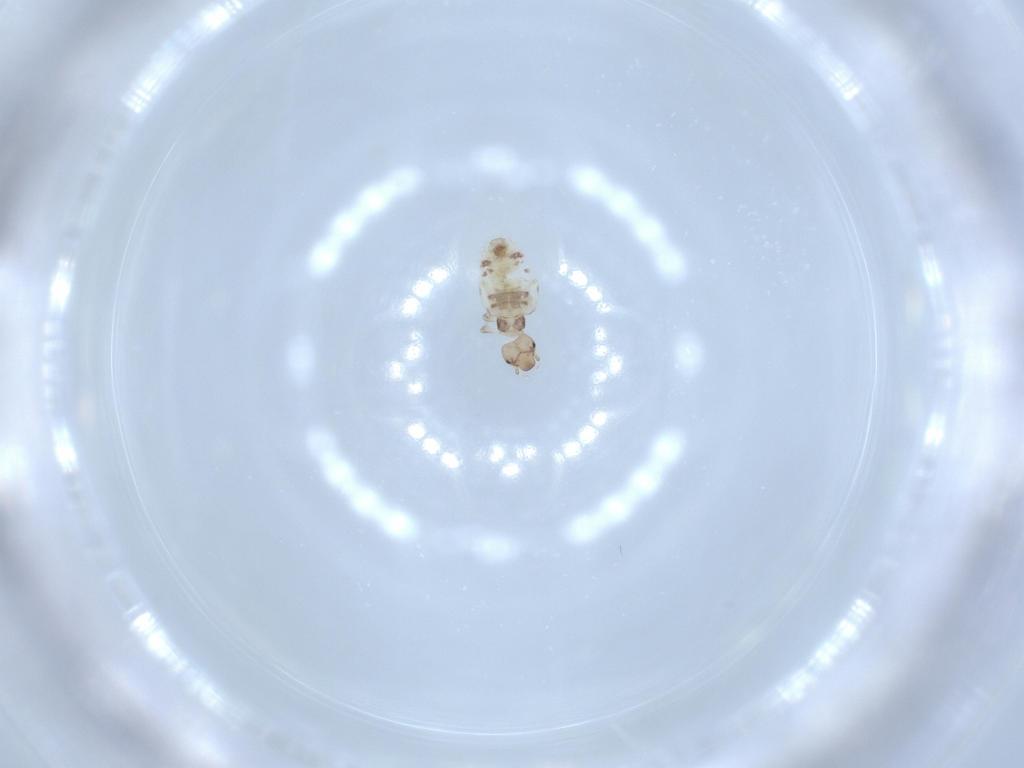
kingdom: Animalia
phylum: Arthropoda
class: Insecta
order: Psocodea
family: Liposcelididae
